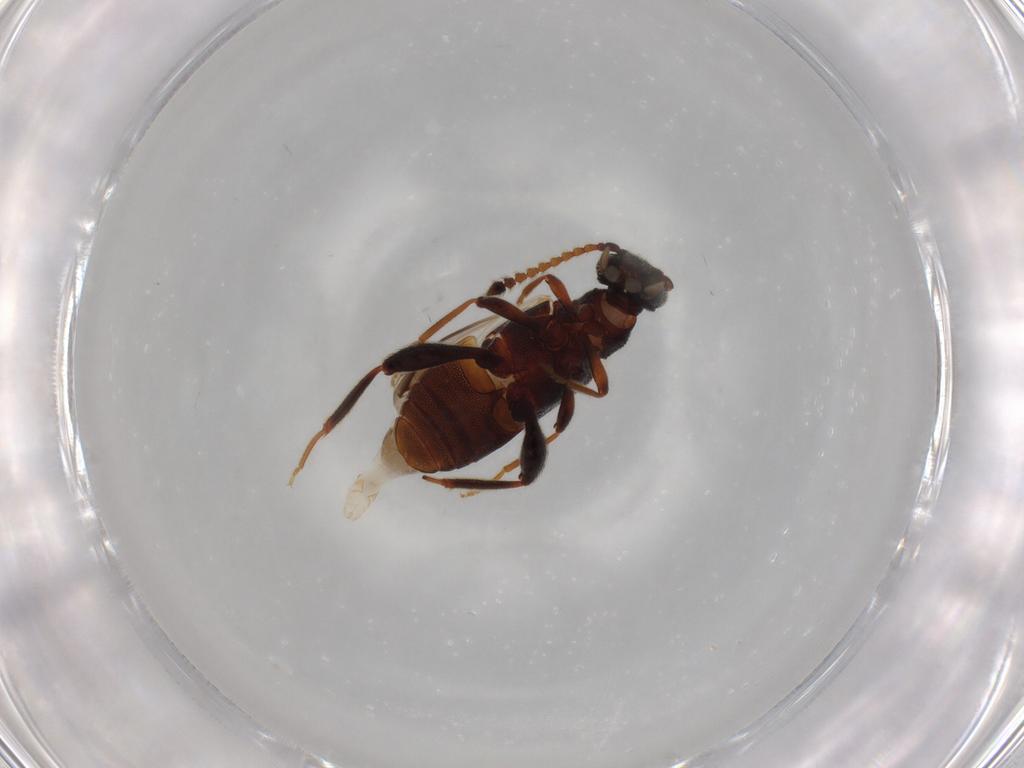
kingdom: Animalia
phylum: Arthropoda
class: Insecta
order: Coleoptera
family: Aderidae
